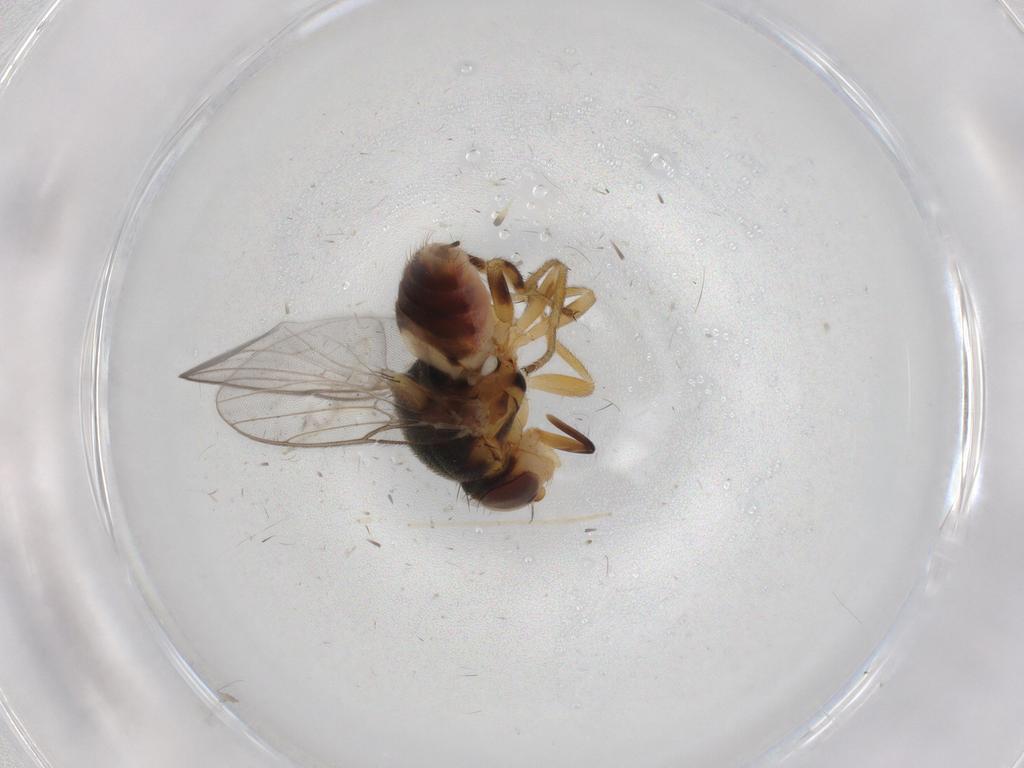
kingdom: Animalia
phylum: Arthropoda
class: Insecta
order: Diptera
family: Chloropidae
